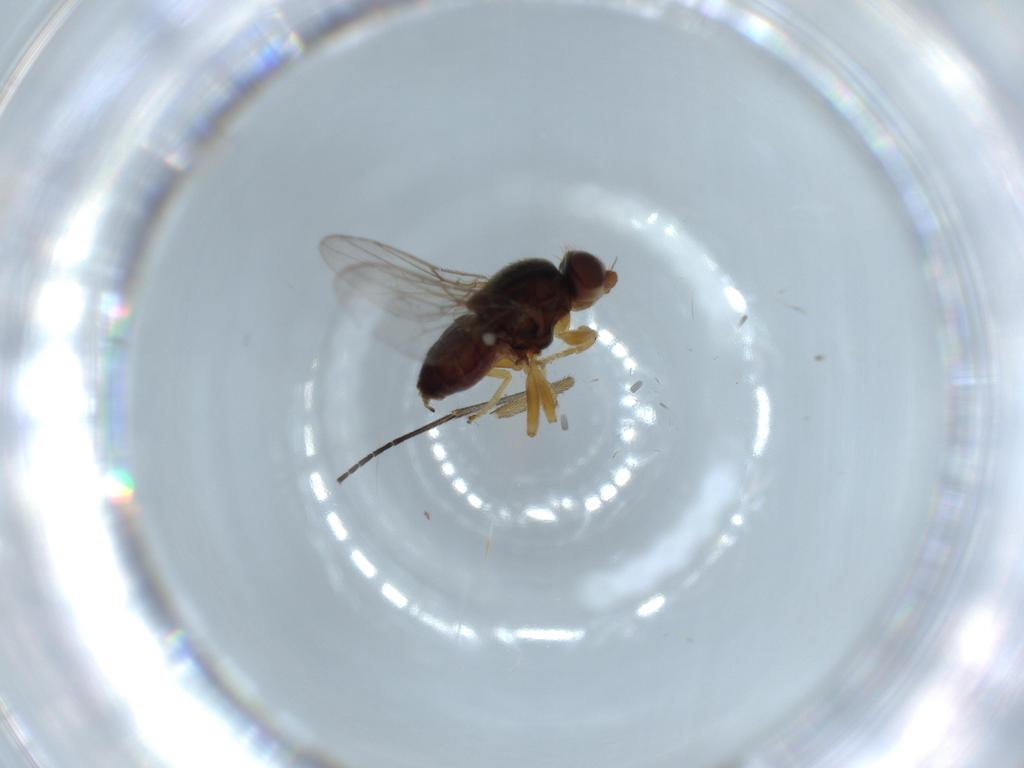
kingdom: Animalia
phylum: Arthropoda
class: Insecta
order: Diptera
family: Chloropidae
